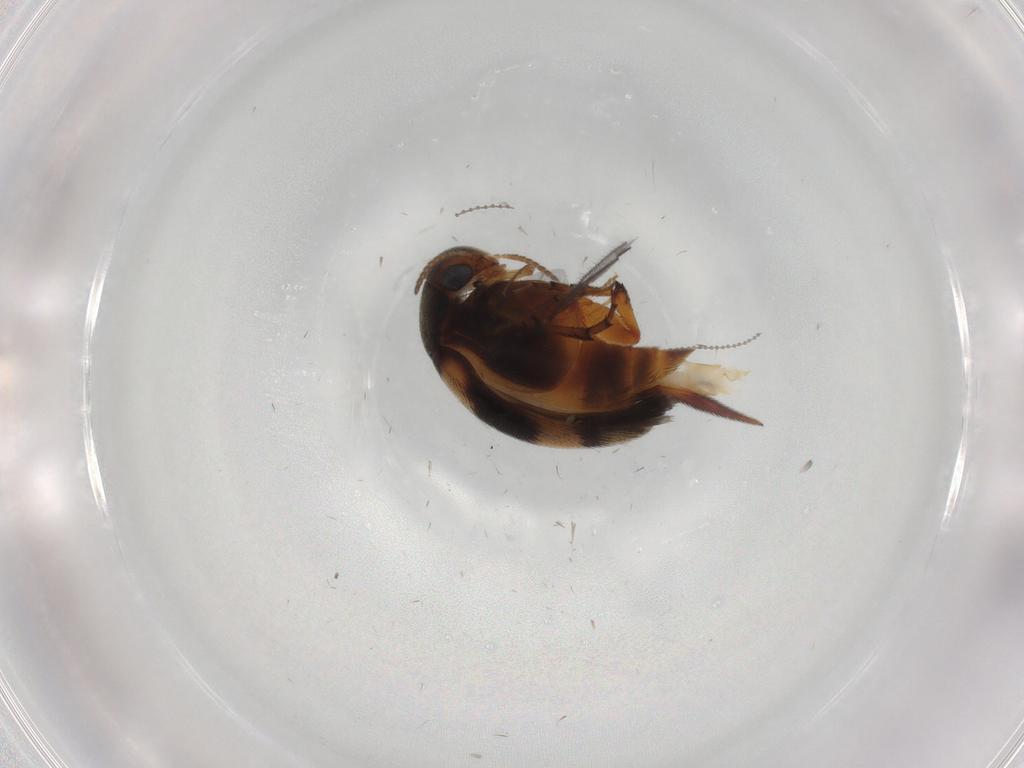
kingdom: Animalia
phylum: Arthropoda
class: Insecta
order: Coleoptera
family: Mordellidae
